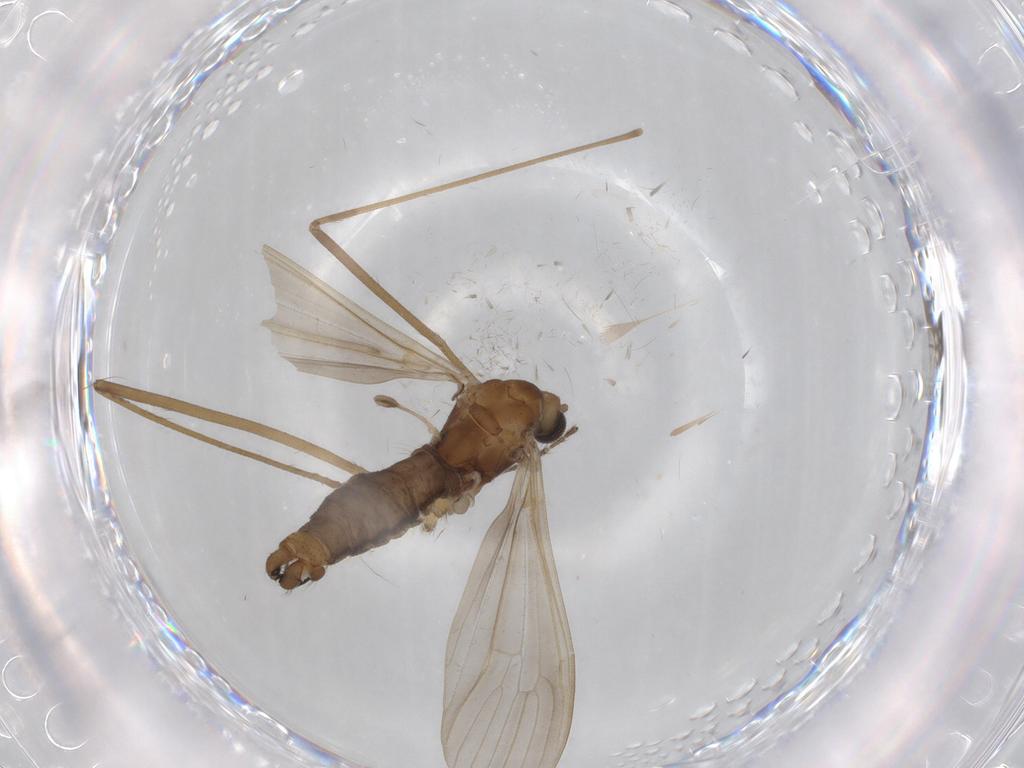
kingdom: Animalia
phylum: Arthropoda
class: Insecta
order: Diptera
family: Limoniidae
